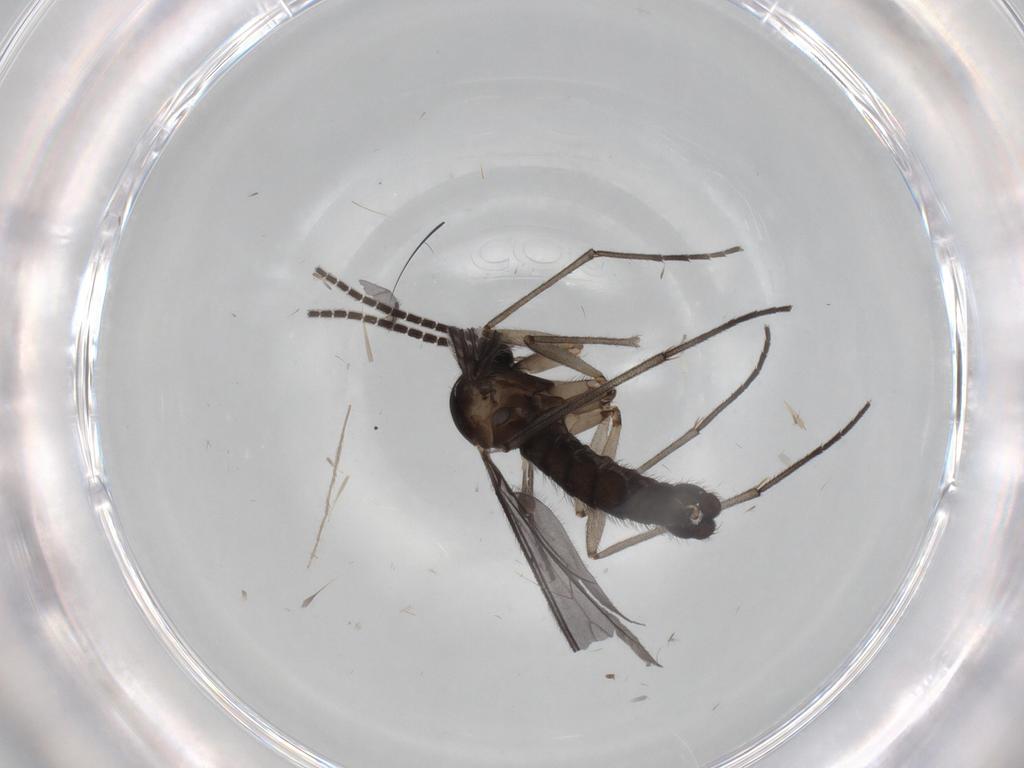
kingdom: Animalia
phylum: Arthropoda
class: Insecta
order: Diptera
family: Sciaridae
